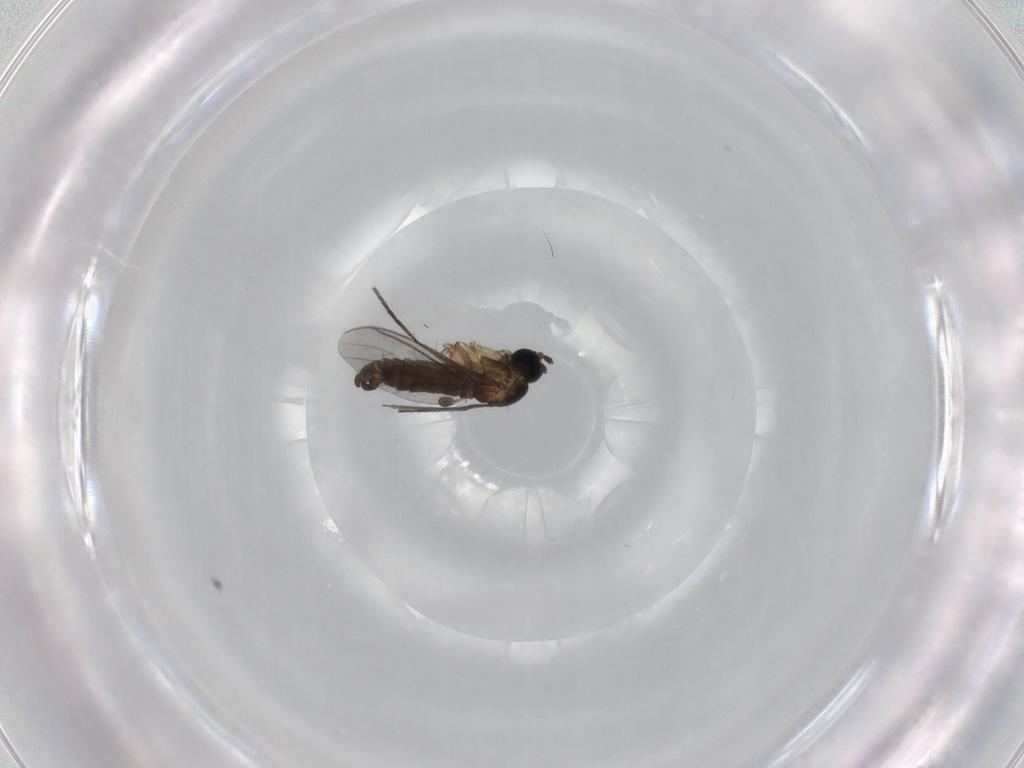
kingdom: Animalia
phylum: Arthropoda
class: Insecta
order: Diptera
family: Sciaridae
